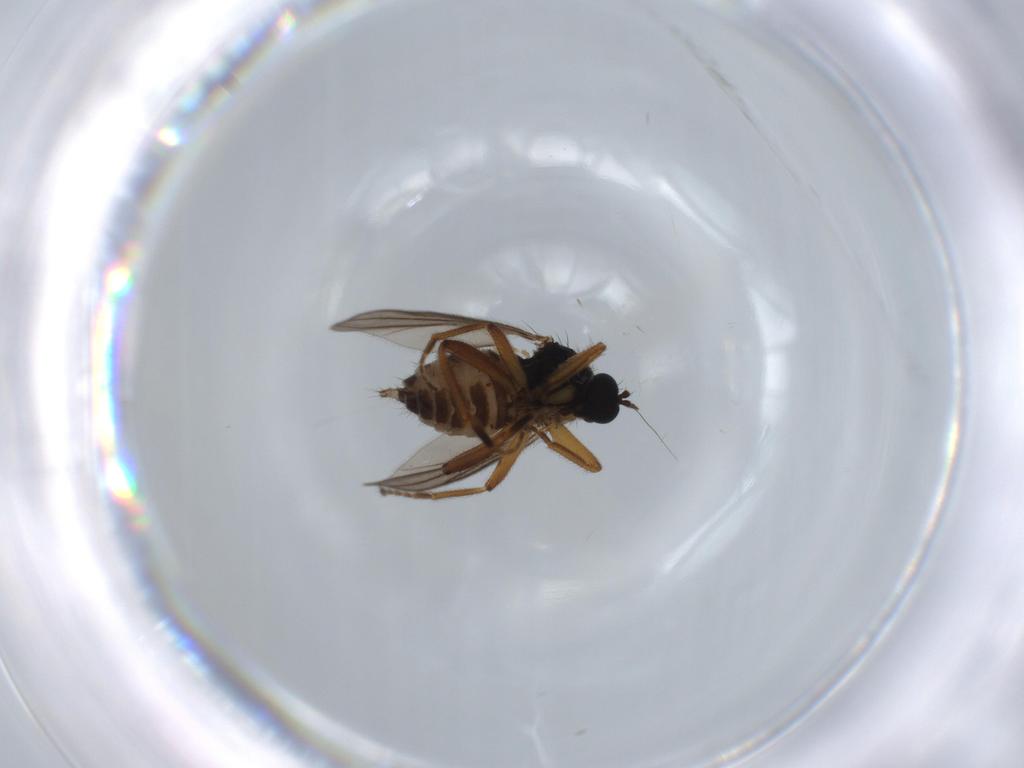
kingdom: Animalia
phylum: Arthropoda
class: Insecta
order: Diptera
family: Hybotidae
